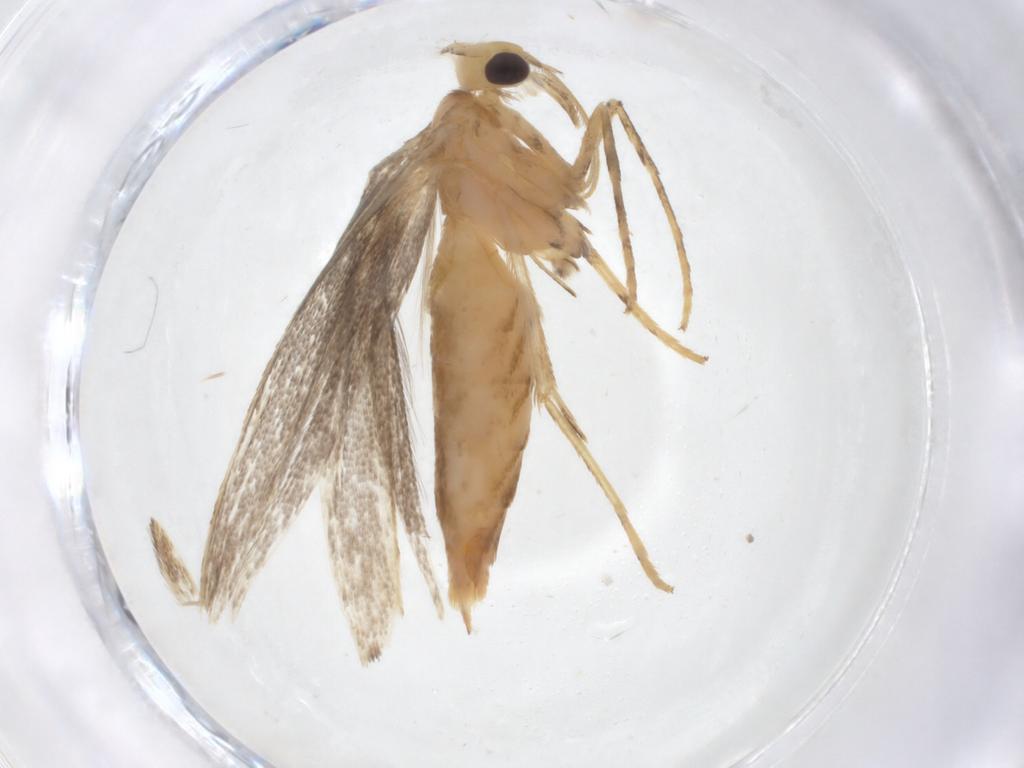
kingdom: Animalia
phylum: Arthropoda
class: Insecta
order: Lepidoptera
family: Gracillariidae
